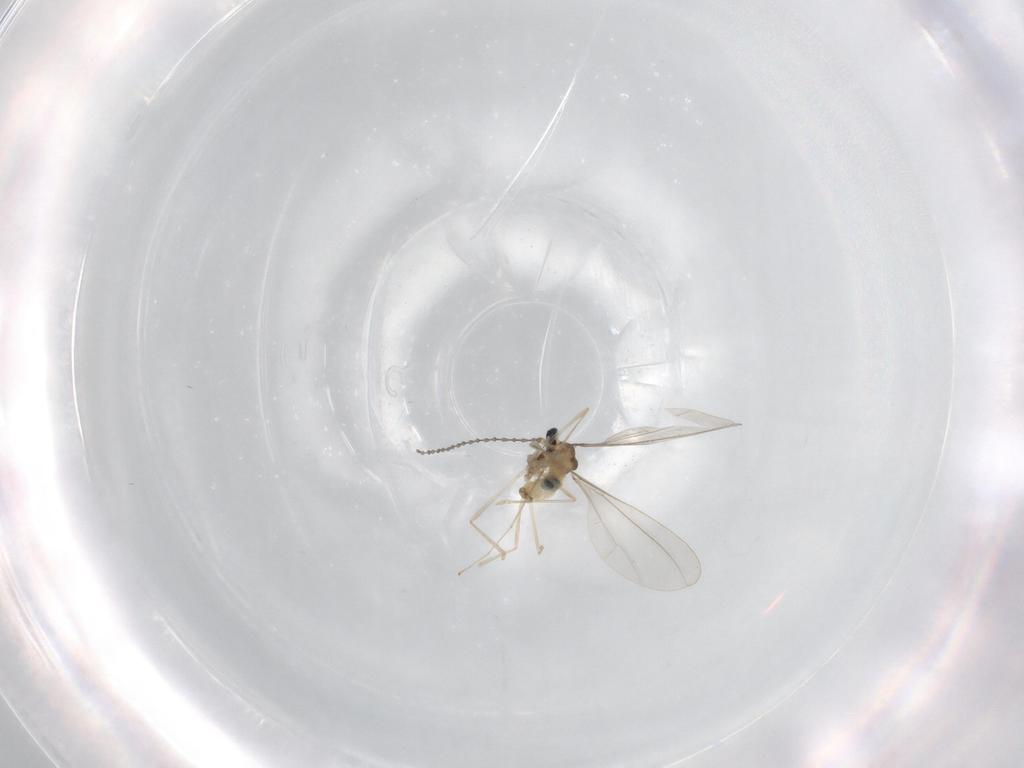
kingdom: Animalia
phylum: Arthropoda
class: Insecta
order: Diptera
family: Cecidomyiidae
